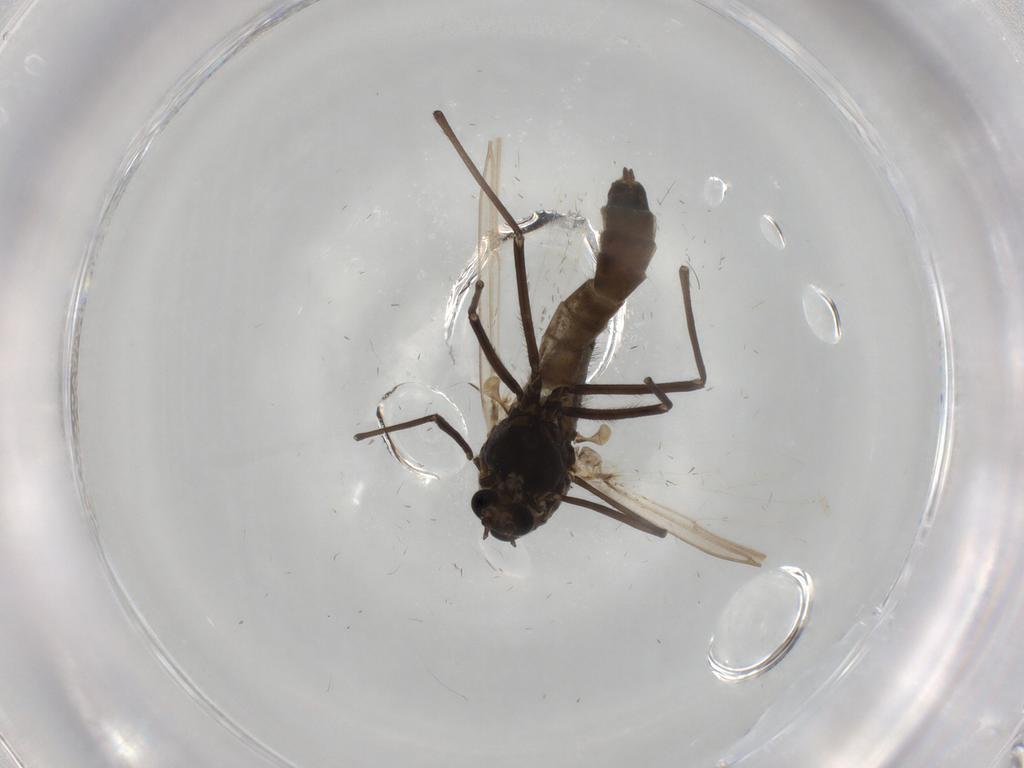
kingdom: Animalia
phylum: Arthropoda
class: Insecta
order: Diptera
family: Chironomidae
